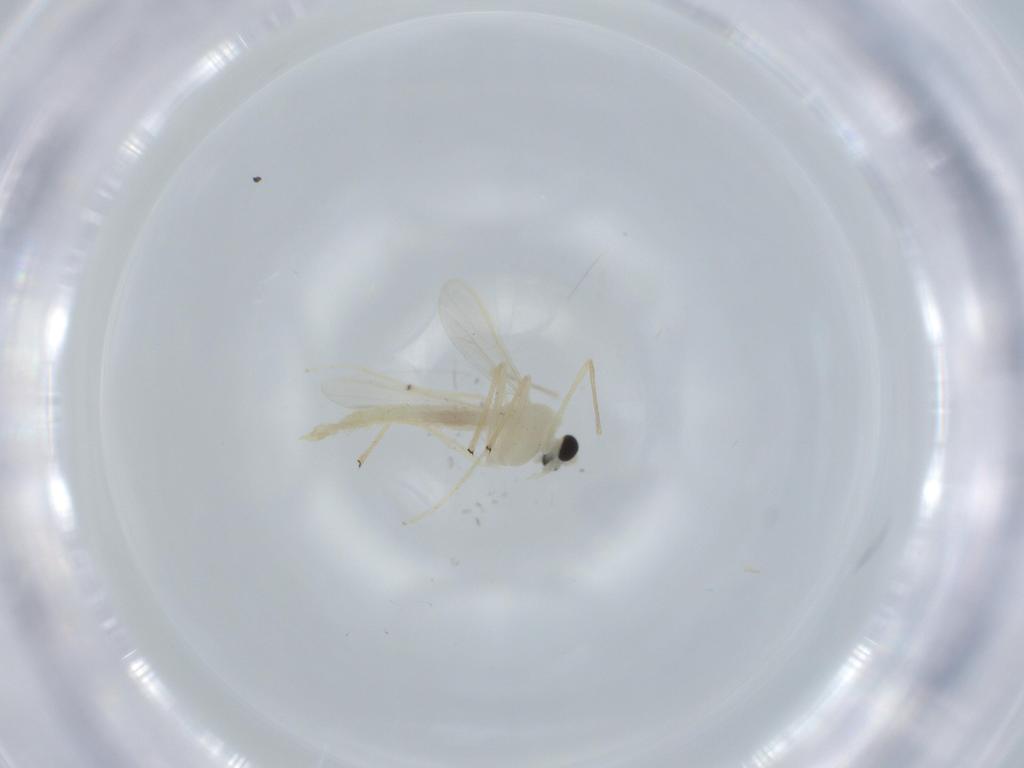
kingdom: Animalia
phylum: Arthropoda
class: Insecta
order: Diptera
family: Chironomidae
